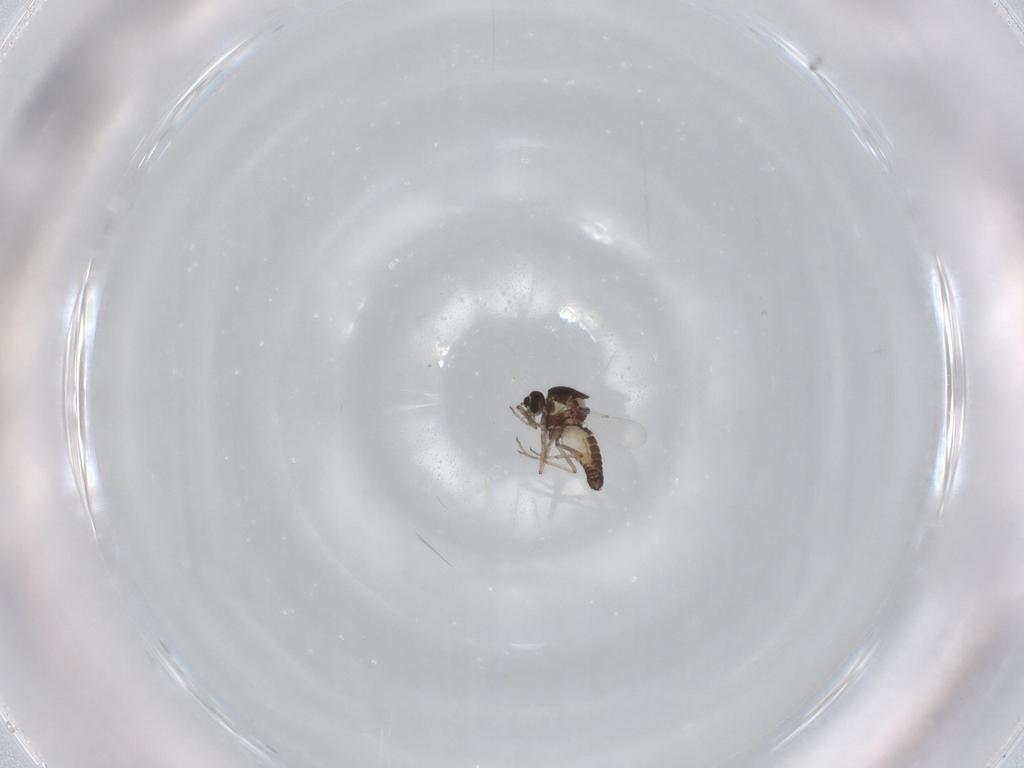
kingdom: Animalia
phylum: Arthropoda
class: Insecta
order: Diptera
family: Ceratopogonidae
